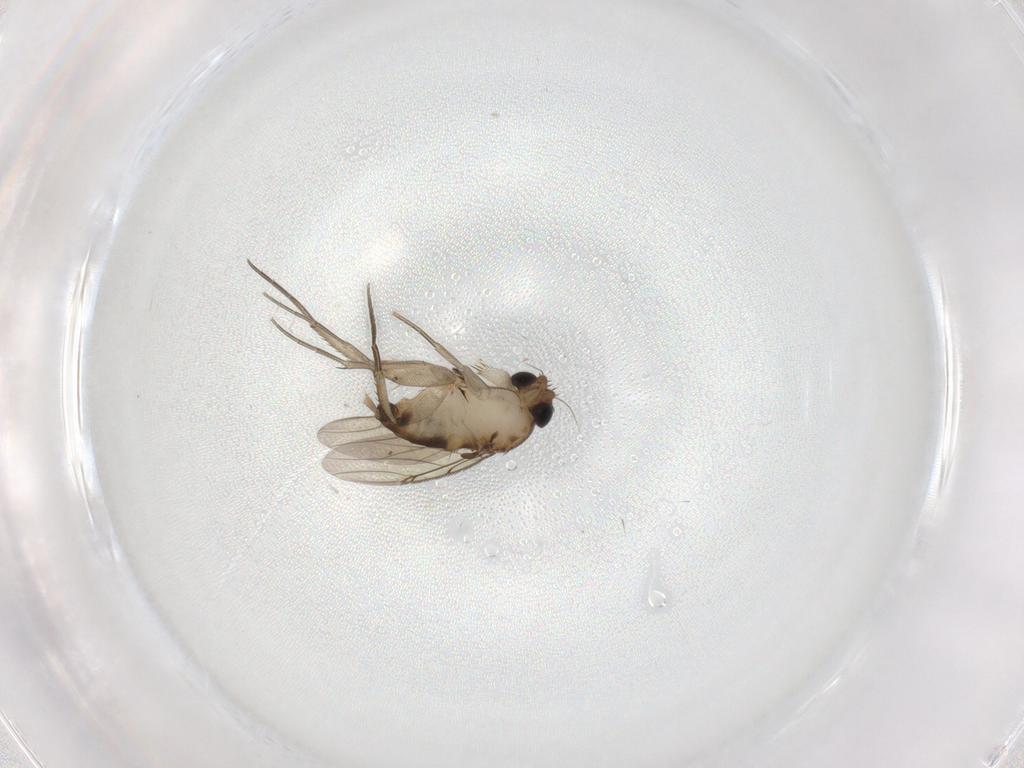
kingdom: Animalia
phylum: Arthropoda
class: Insecta
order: Diptera
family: Phoridae
